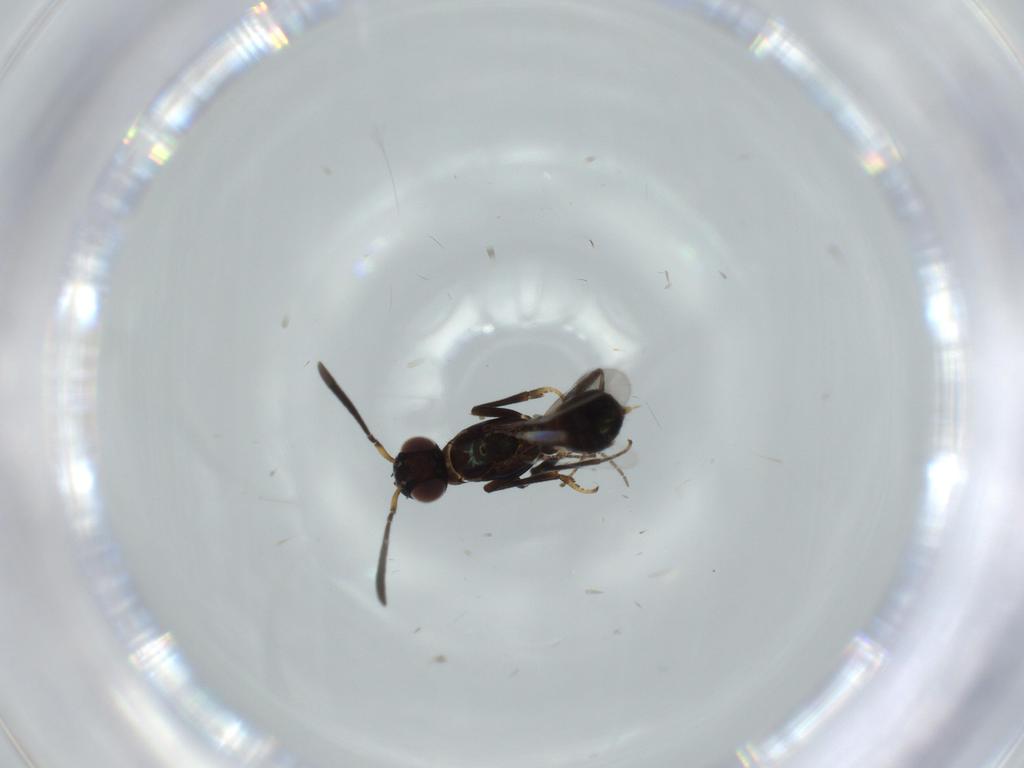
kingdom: Animalia
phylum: Arthropoda
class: Insecta
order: Hymenoptera
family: Eupelmidae
